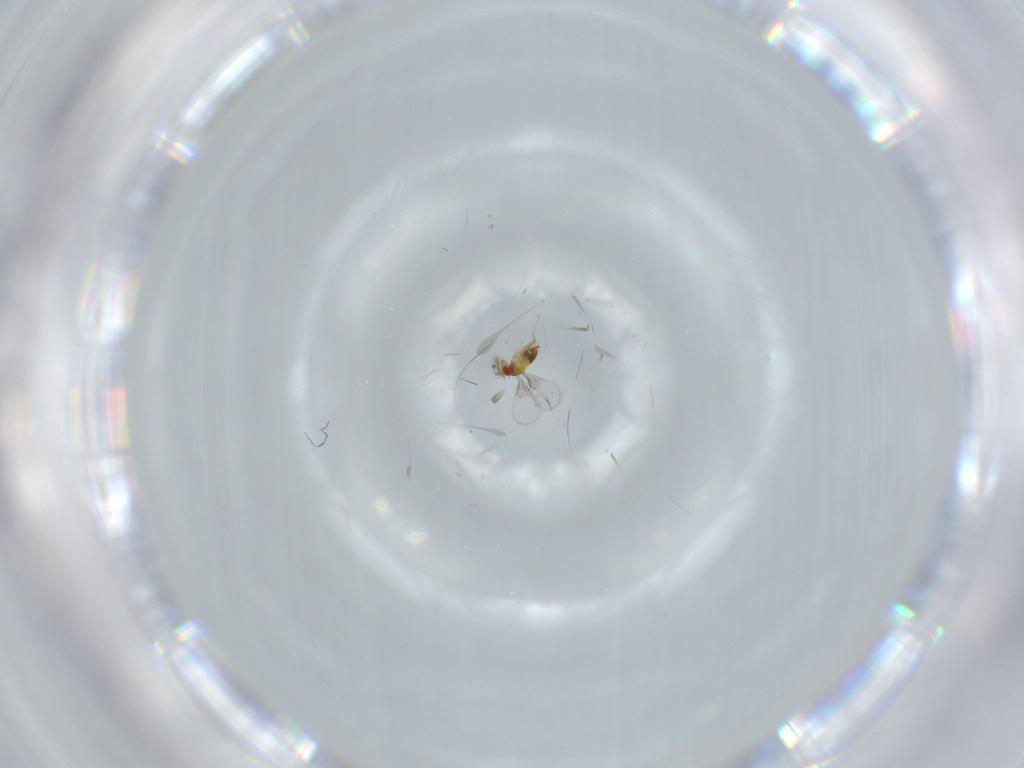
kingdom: Animalia
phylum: Arthropoda
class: Insecta
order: Hymenoptera
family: Trichogrammatidae
